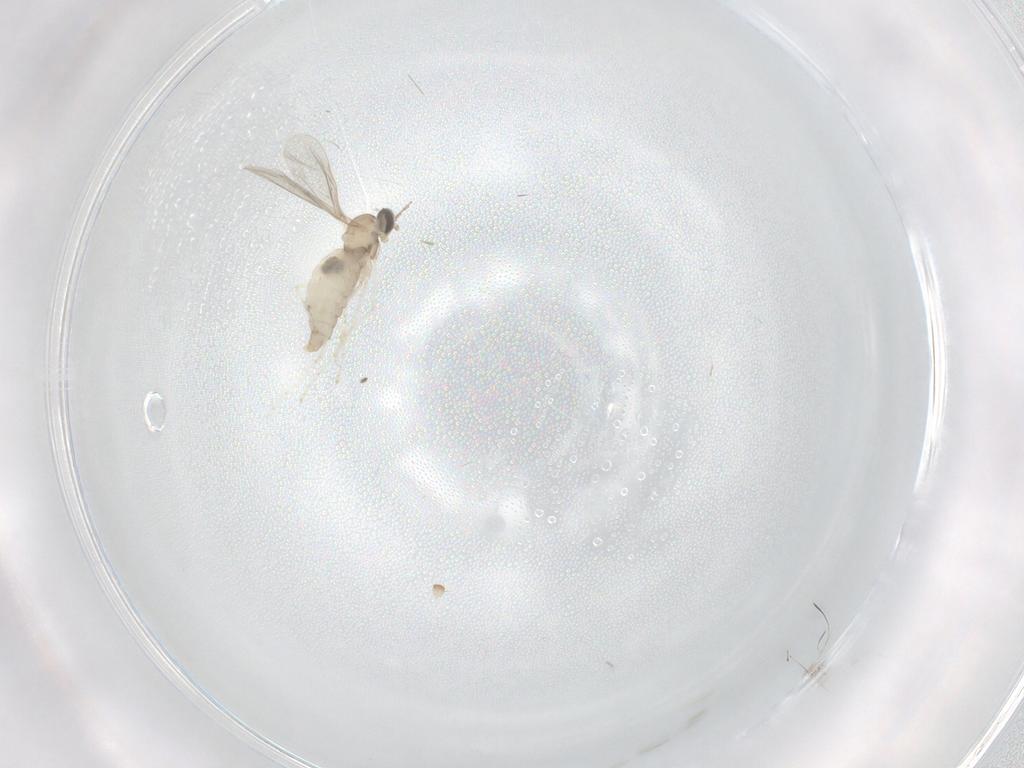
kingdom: Animalia
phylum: Arthropoda
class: Insecta
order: Diptera
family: Cecidomyiidae
